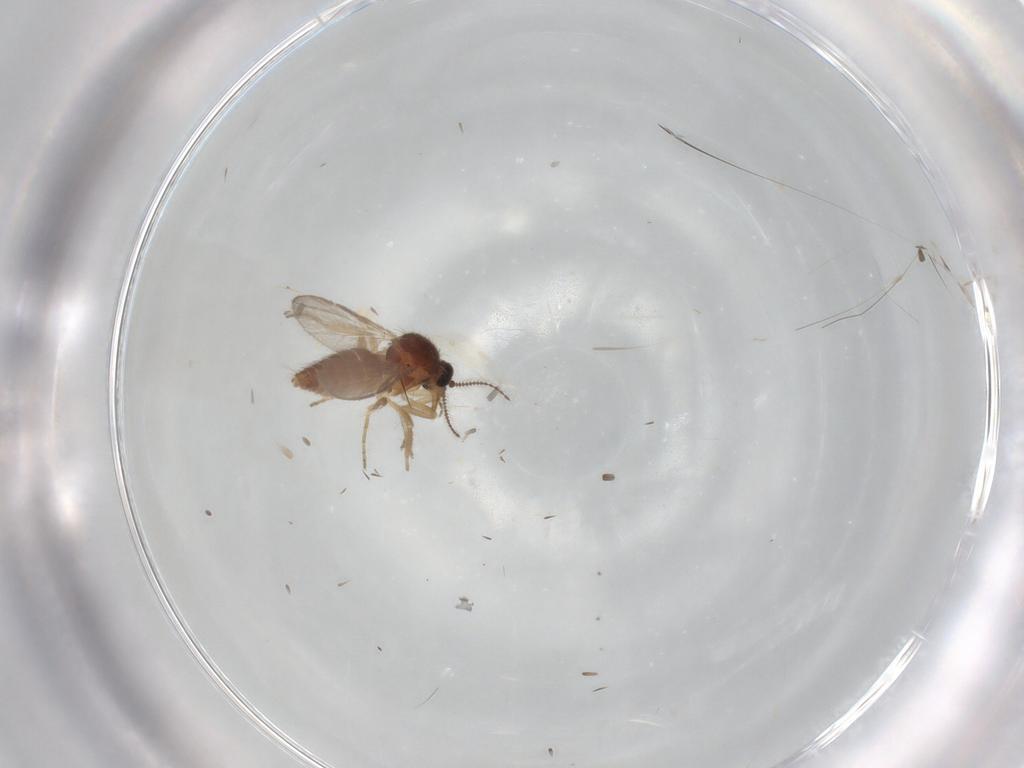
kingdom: Animalia
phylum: Arthropoda
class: Insecta
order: Diptera
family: Ceratopogonidae
